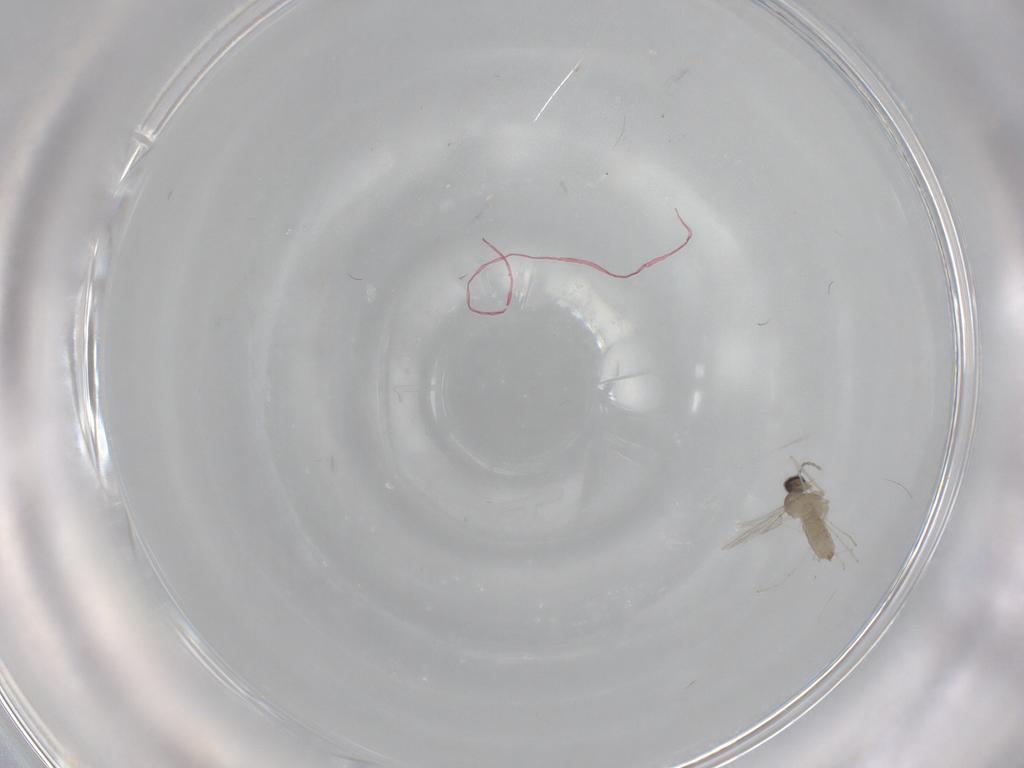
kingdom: Animalia
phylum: Arthropoda
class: Insecta
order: Diptera
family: Cecidomyiidae
